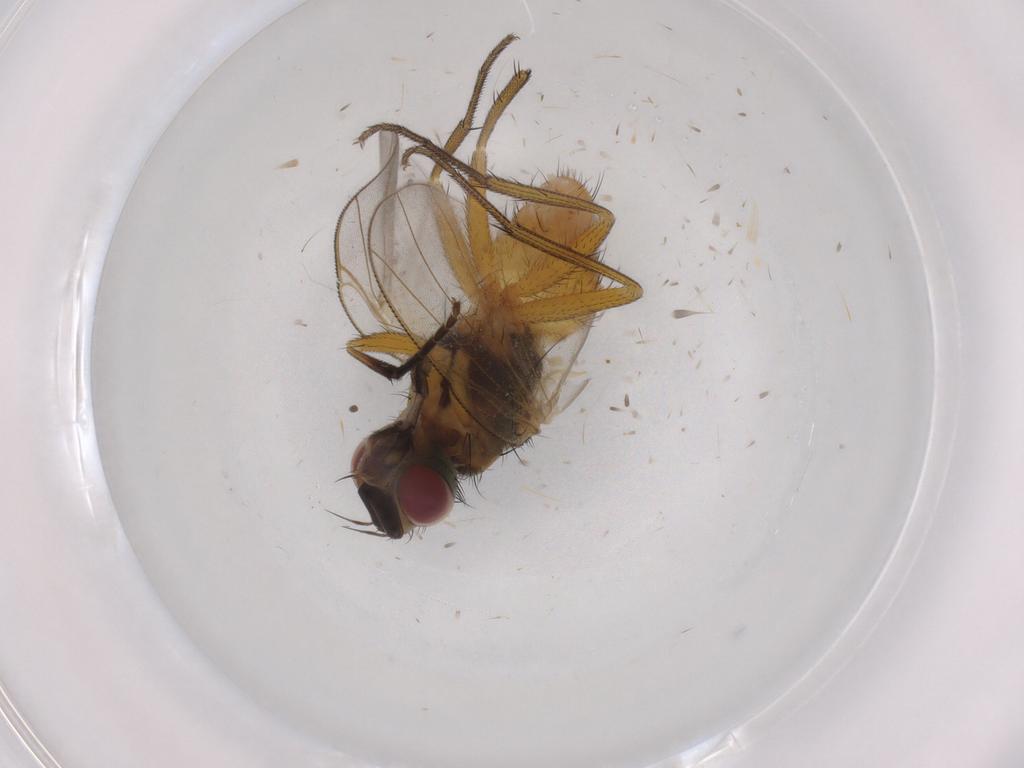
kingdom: Animalia
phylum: Arthropoda
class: Insecta
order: Diptera
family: Muscidae
